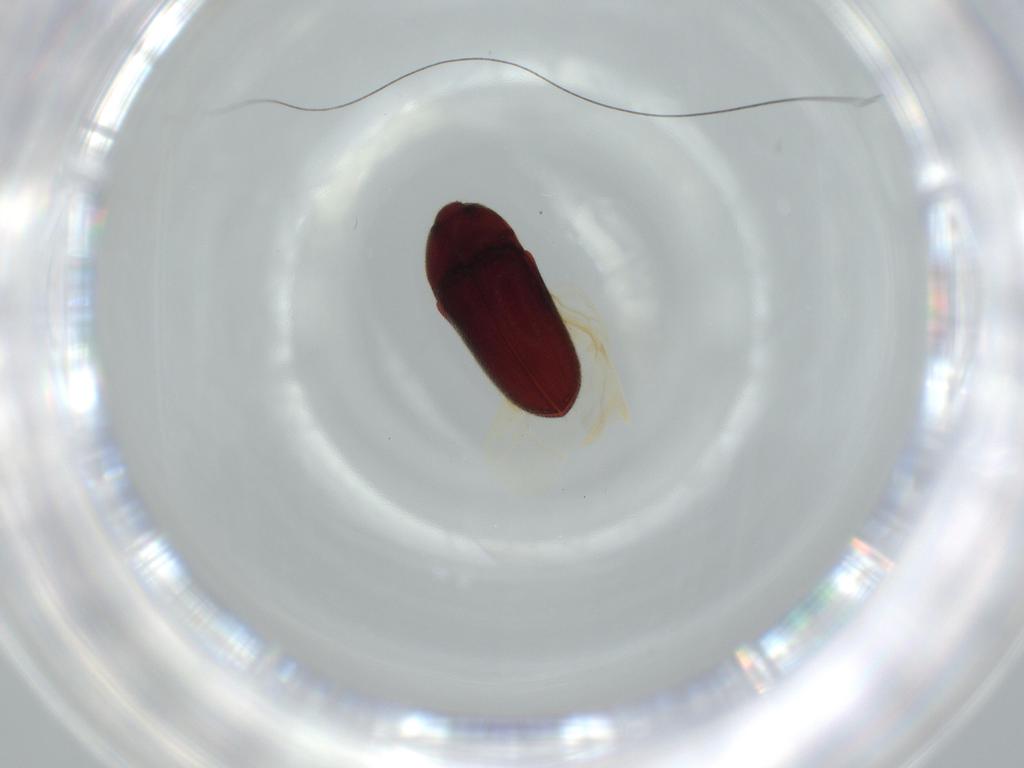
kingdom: Animalia
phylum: Arthropoda
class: Insecta
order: Coleoptera
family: Throscidae
